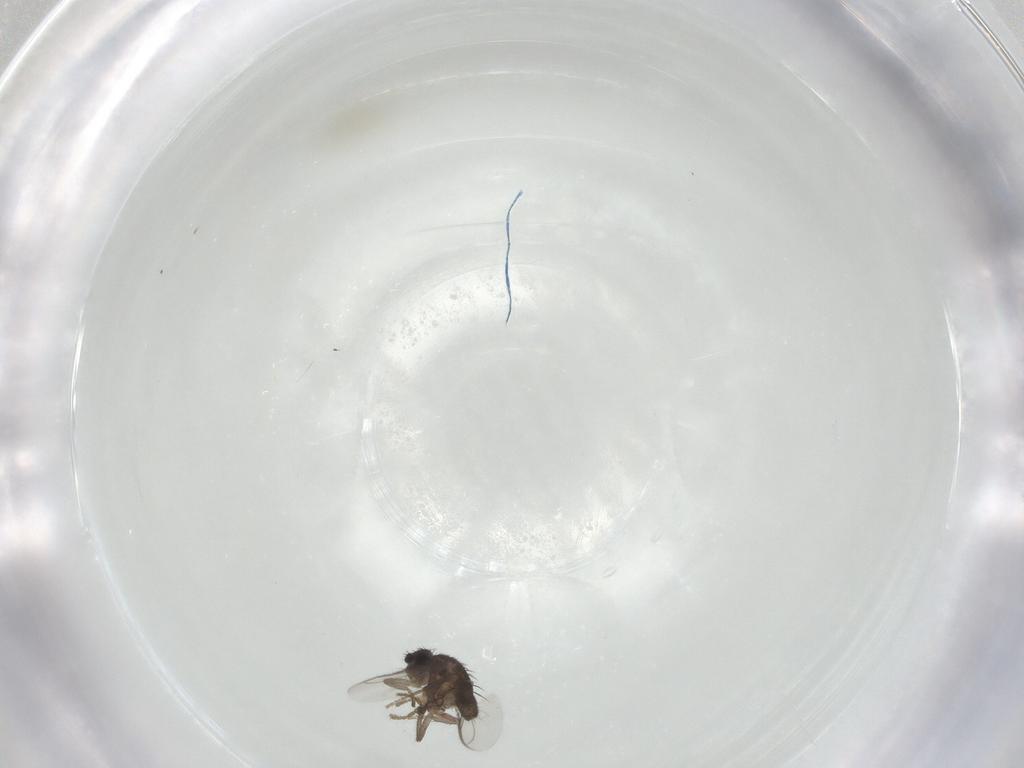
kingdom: Animalia
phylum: Arthropoda
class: Insecta
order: Diptera
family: Sphaeroceridae
